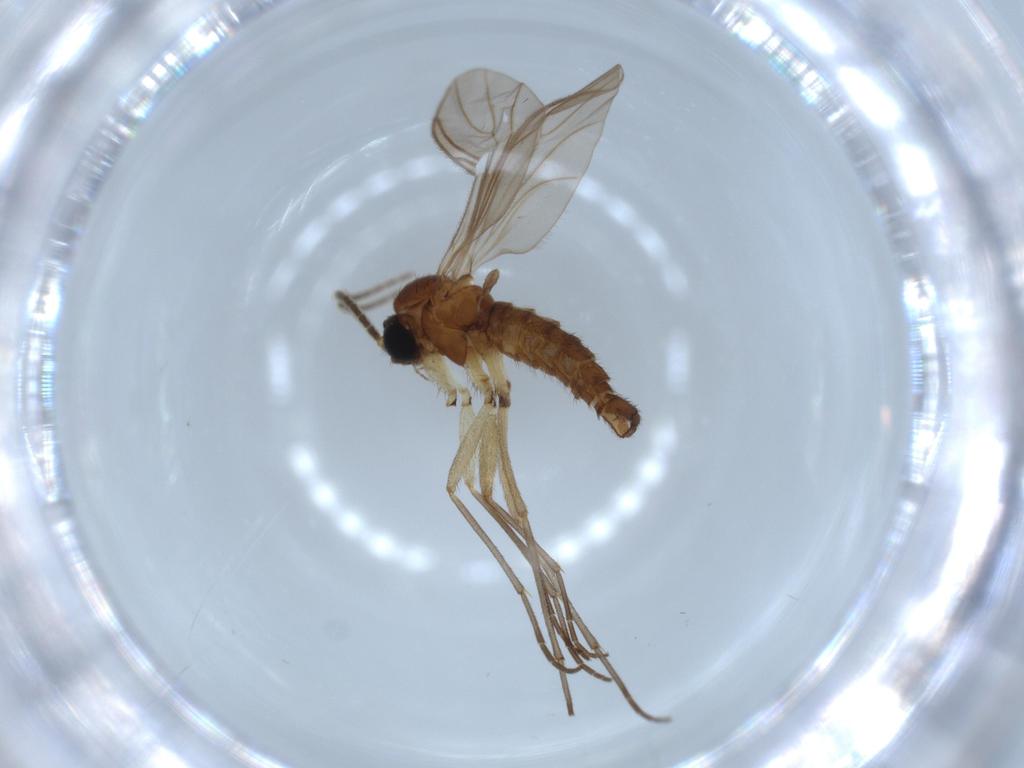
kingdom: Animalia
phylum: Arthropoda
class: Insecta
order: Diptera
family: Sciaridae
